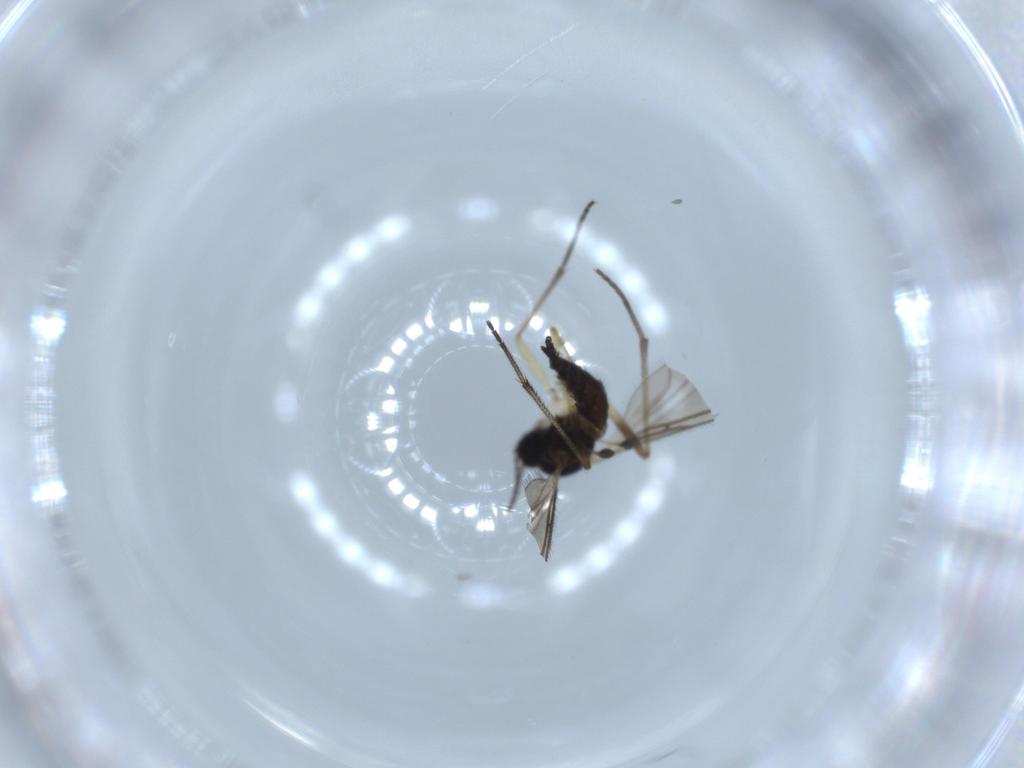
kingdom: Animalia
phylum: Arthropoda
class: Insecta
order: Diptera
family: Sciaridae
